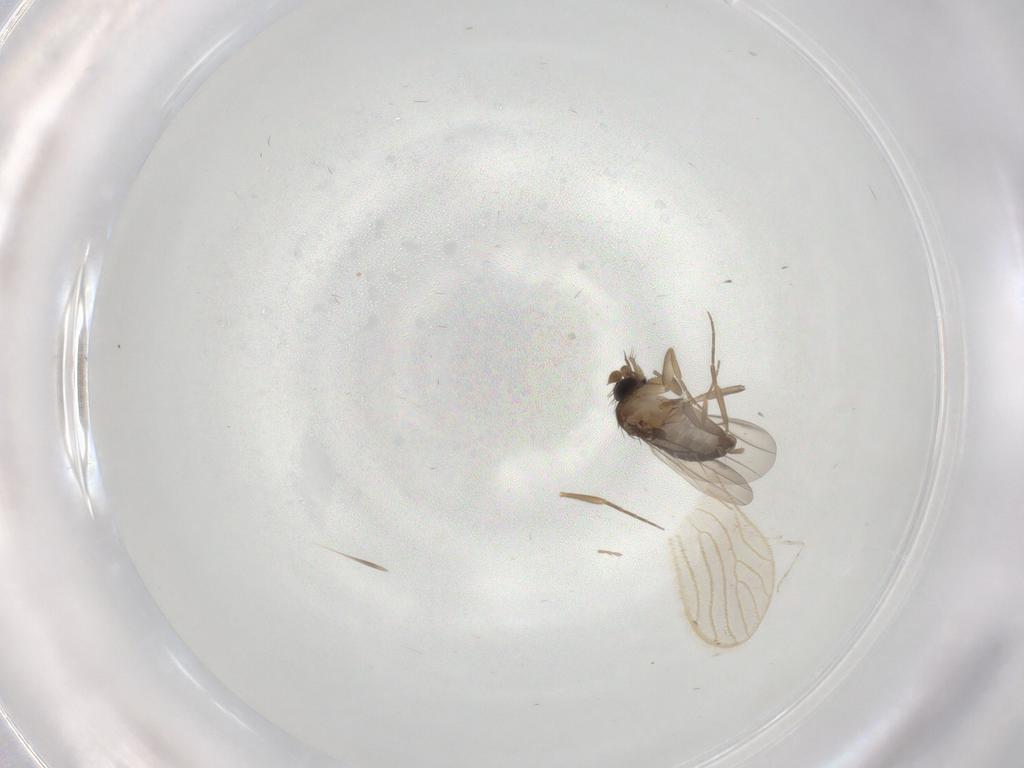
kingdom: Animalia
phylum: Arthropoda
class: Insecta
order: Diptera
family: Phoridae
